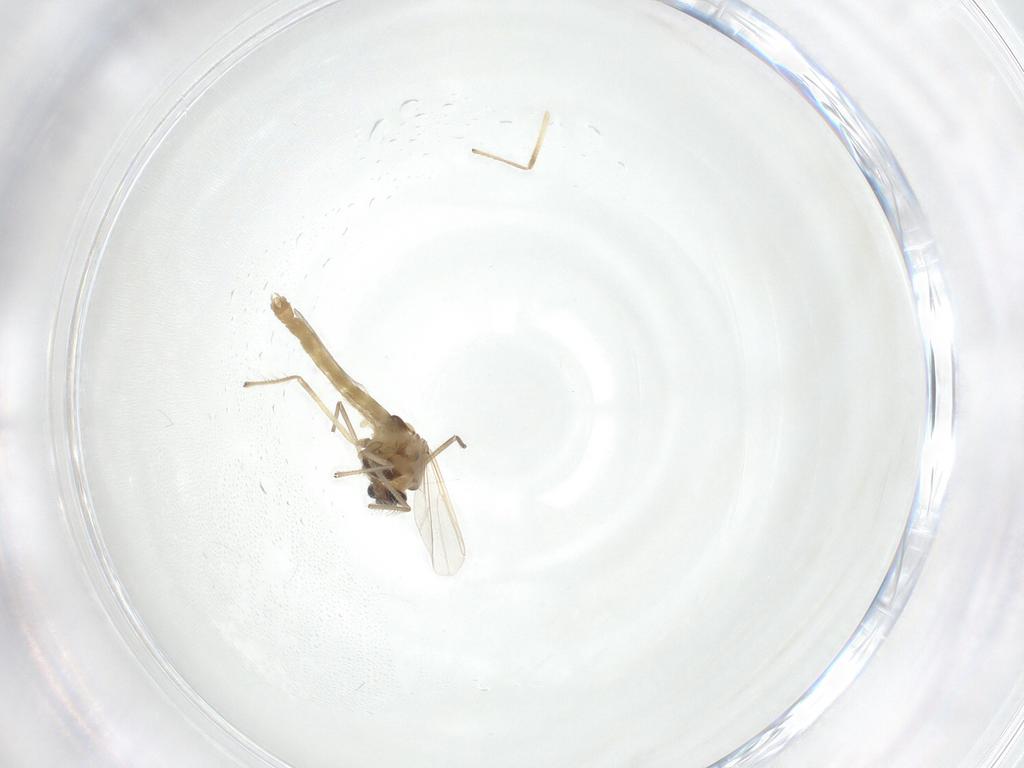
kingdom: Animalia
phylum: Arthropoda
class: Insecta
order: Diptera
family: Chironomidae
